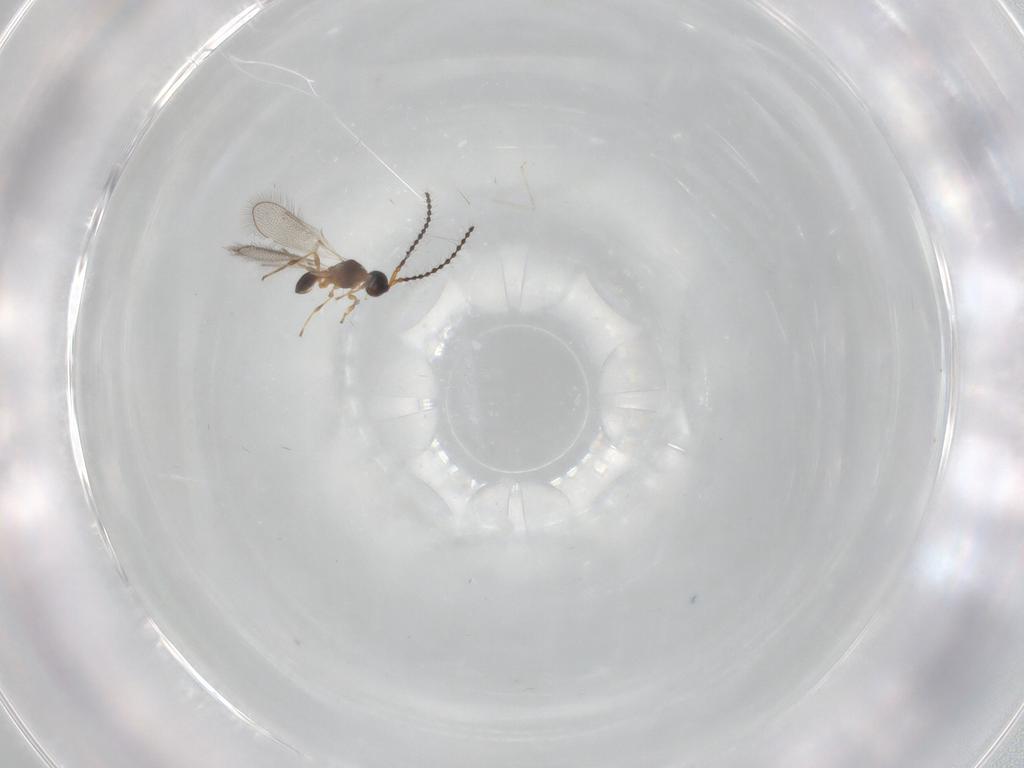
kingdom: Animalia
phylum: Arthropoda
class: Insecta
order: Hymenoptera
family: Diapriidae
